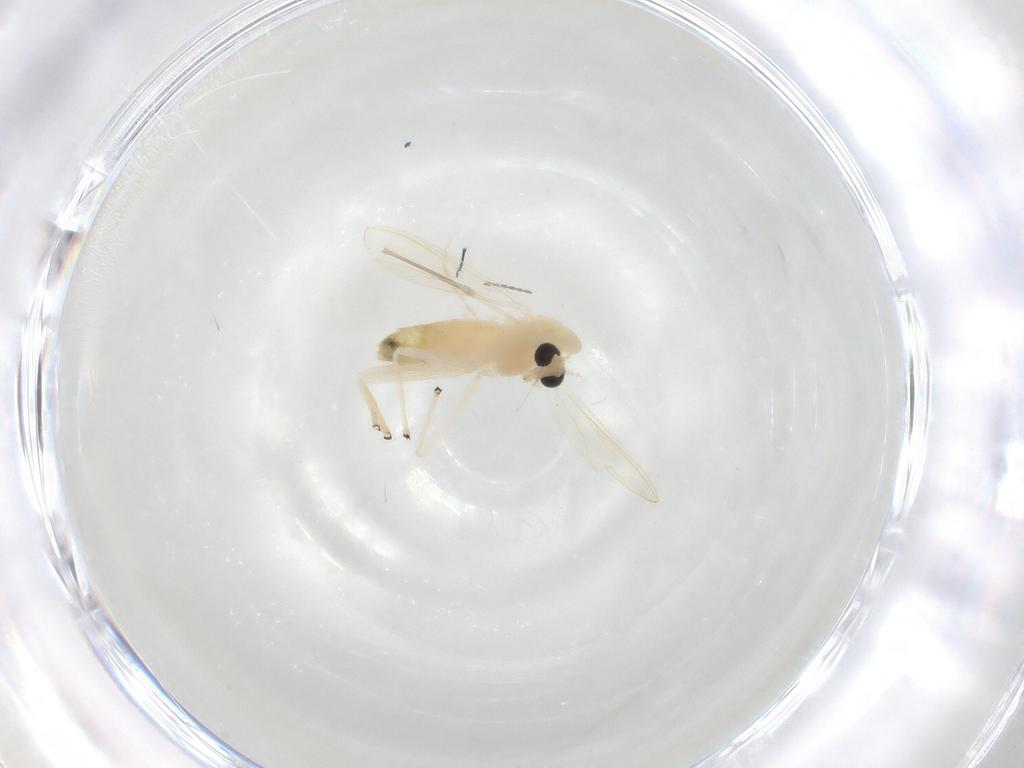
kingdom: Animalia
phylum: Arthropoda
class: Insecta
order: Diptera
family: Chironomidae
